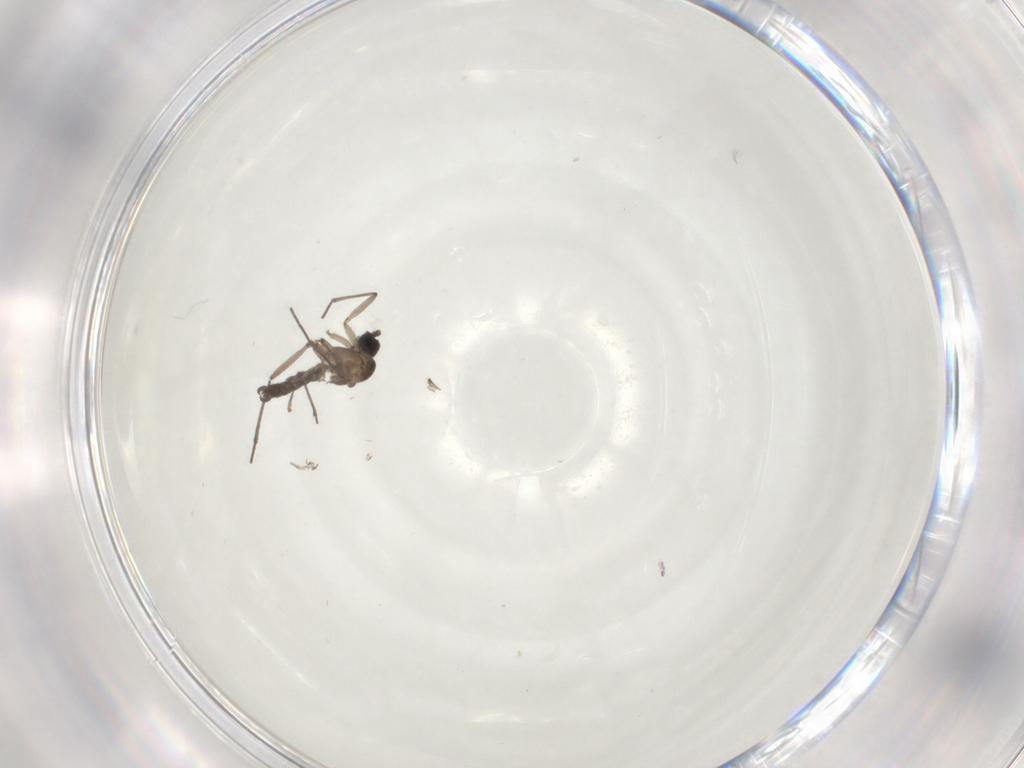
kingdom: Animalia
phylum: Arthropoda
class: Insecta
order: Diptera
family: Sciaridae
